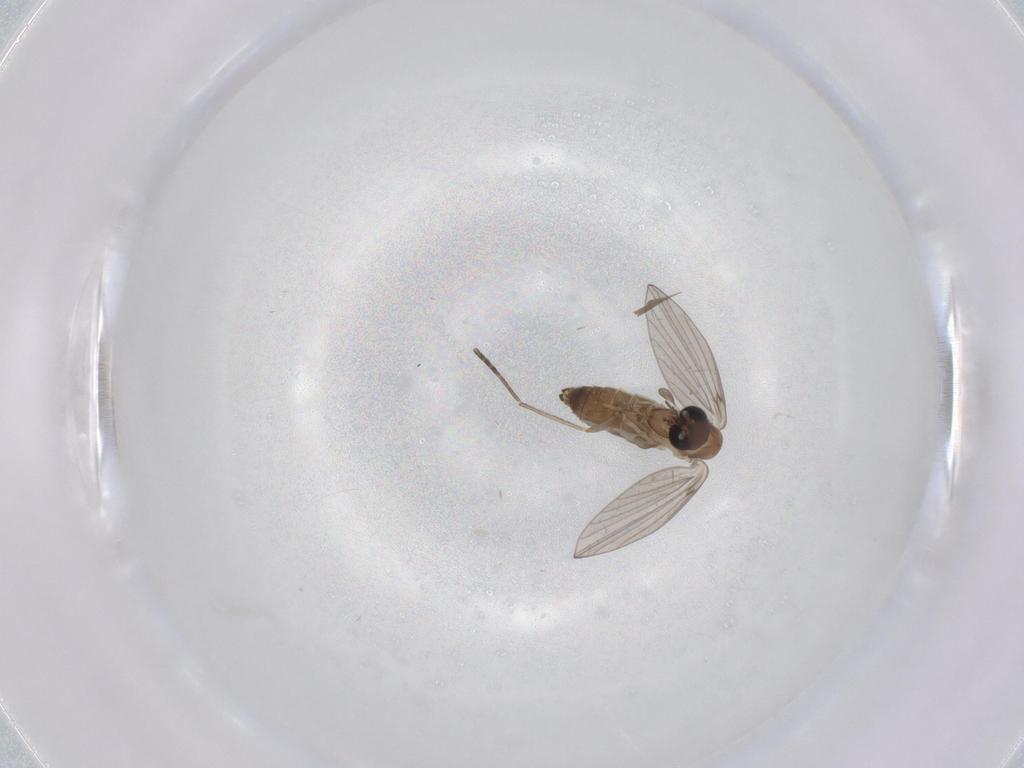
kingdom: Animalia
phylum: Arthropoda
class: Insecta
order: Diptera
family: Psychodidae
